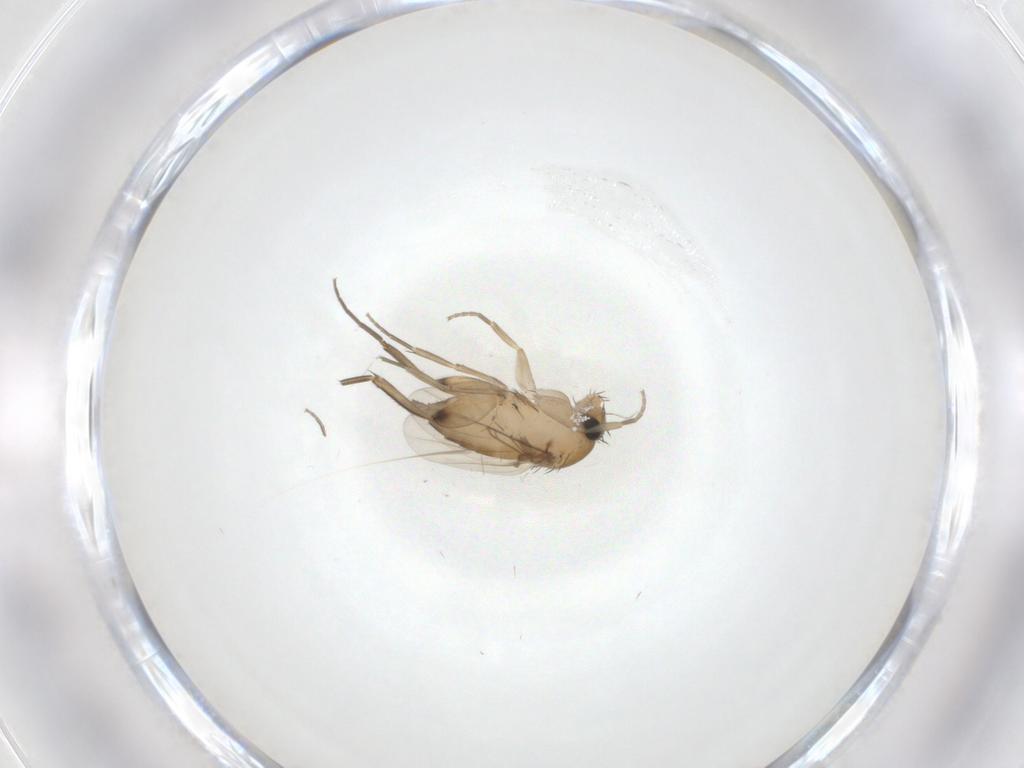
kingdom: Animalia
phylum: Arthropoda
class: Insecta
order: Diptera
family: Phoridae
